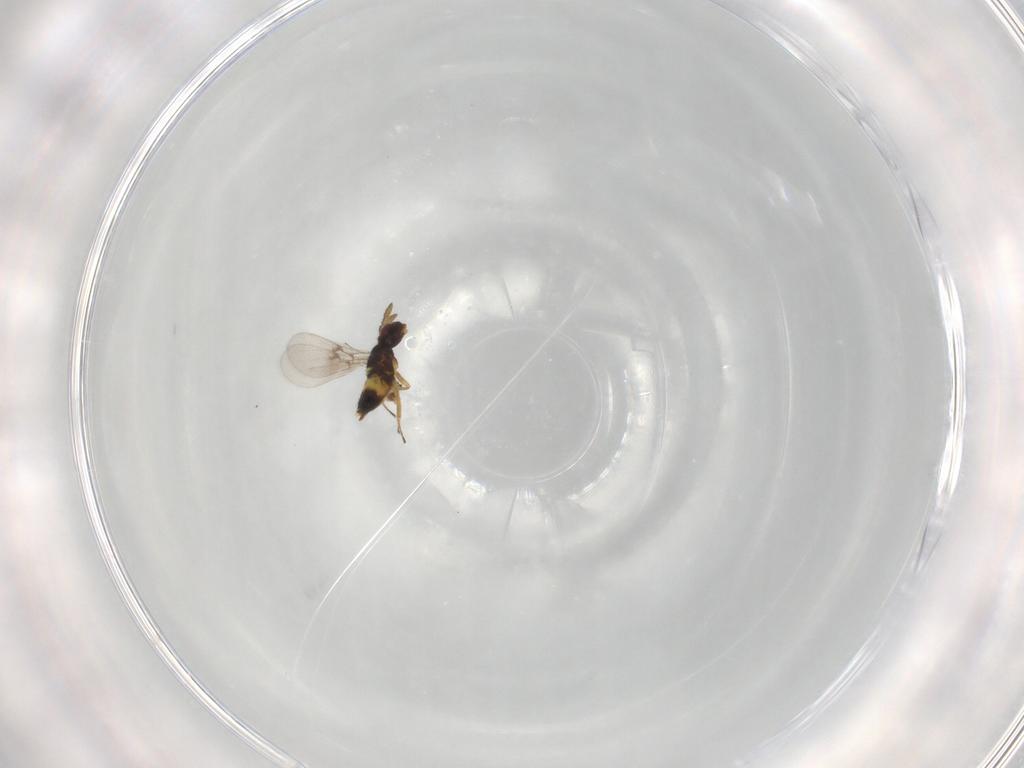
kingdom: Animalia
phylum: Arthropoda
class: Insecta
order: Hymenoptera
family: Eulophidae
